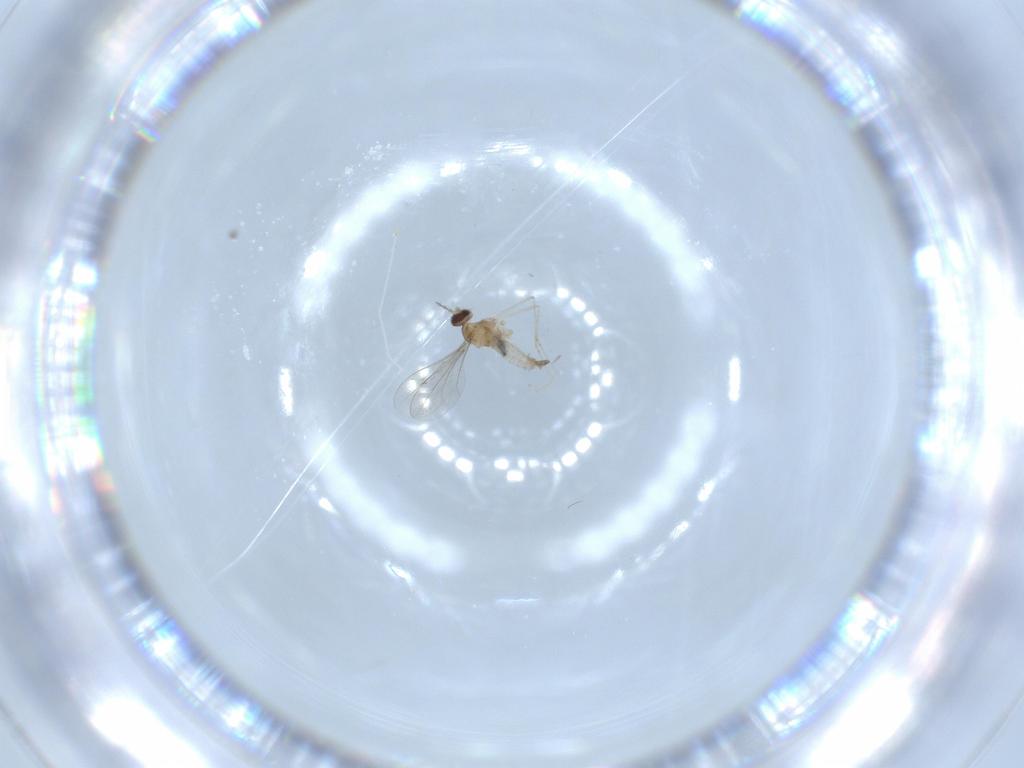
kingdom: Animalia
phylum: Arthropoda
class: Insecta
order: Diptera
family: Cecidomyiidae
